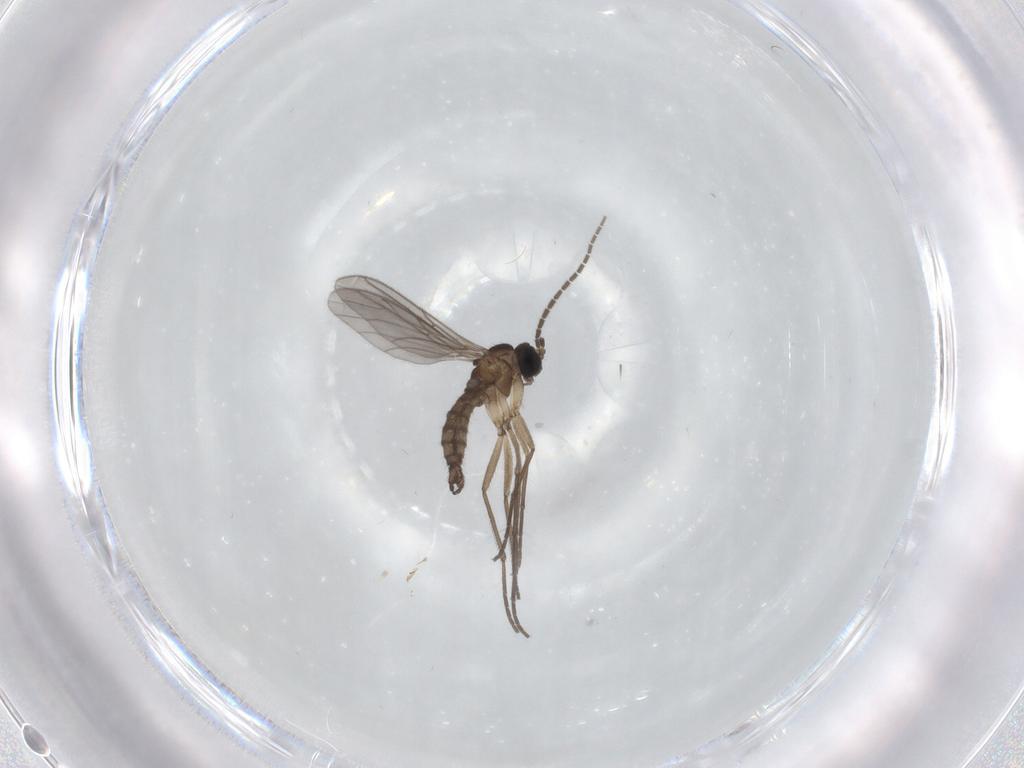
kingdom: Animalia
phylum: Arthropoda
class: Insecta
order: Diptera
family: Sciaridae
